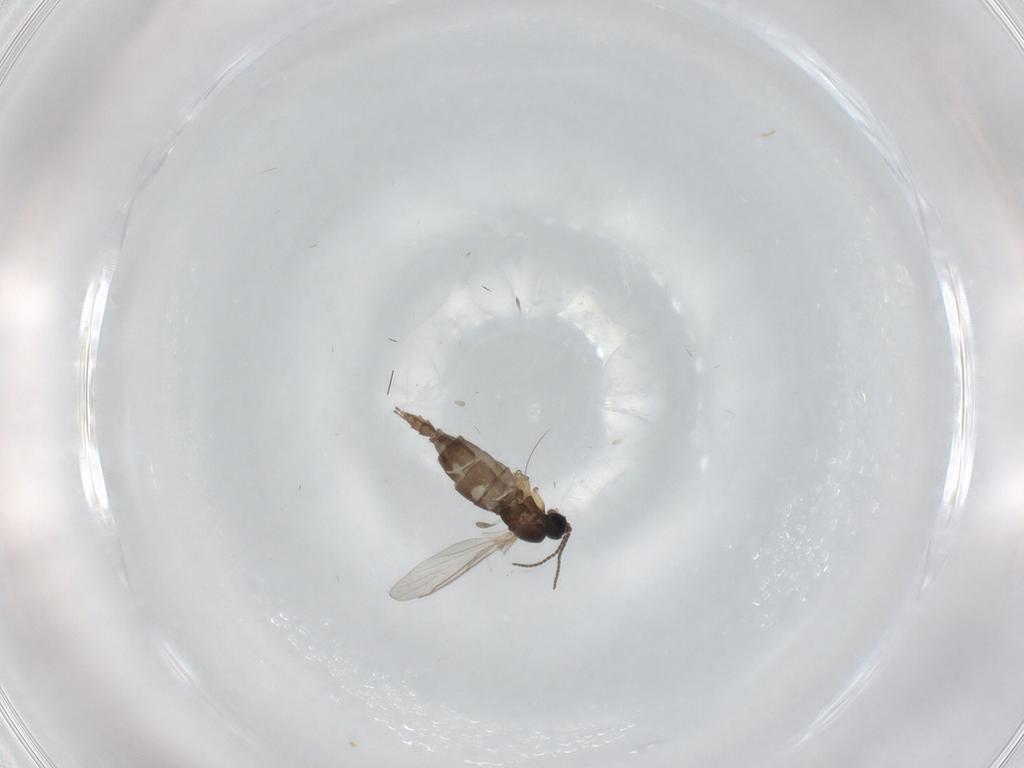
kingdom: Animalia
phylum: Arthropoda
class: Insecta
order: Diptera
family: Sciaridae
